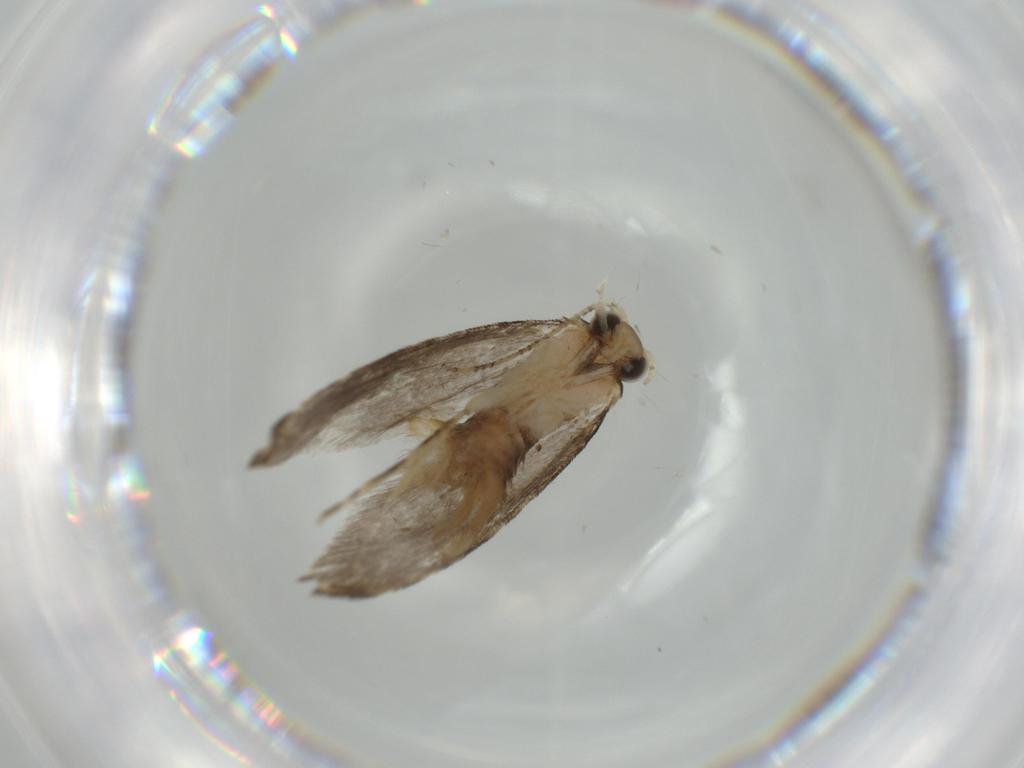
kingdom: Animalia
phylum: Arthropoda
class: Insecta
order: Lepidoptera
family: Tineidae
